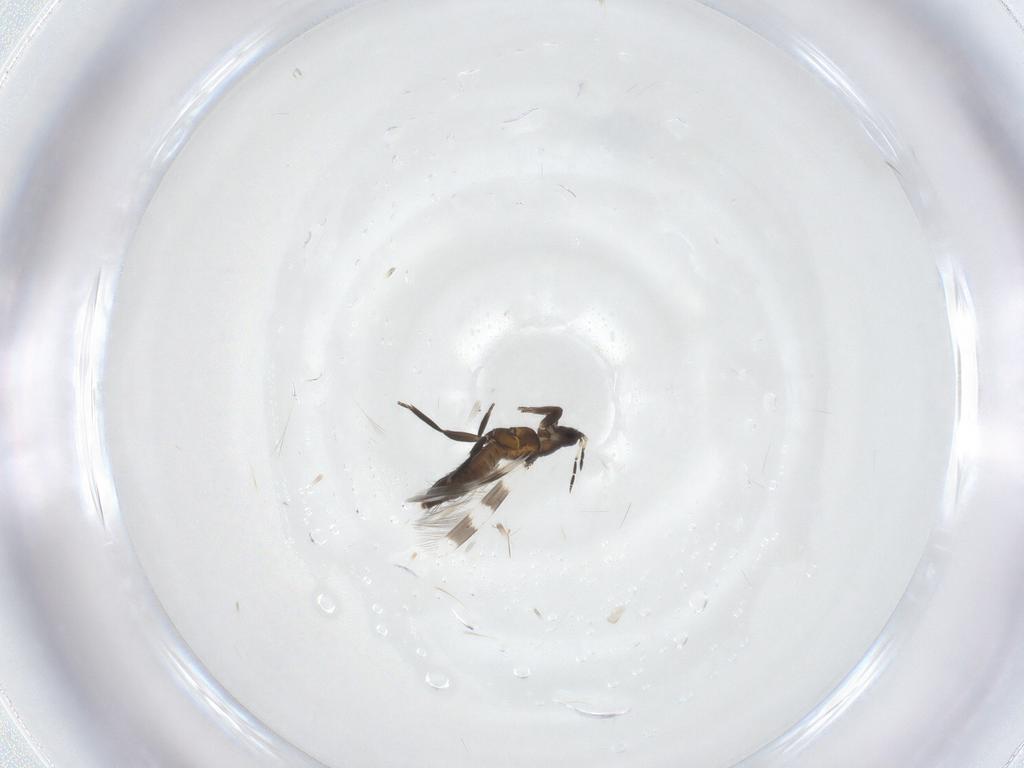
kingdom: Animalia
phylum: Arthropoda
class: Insecta
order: Thysanoptera
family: Aeolothripidae
